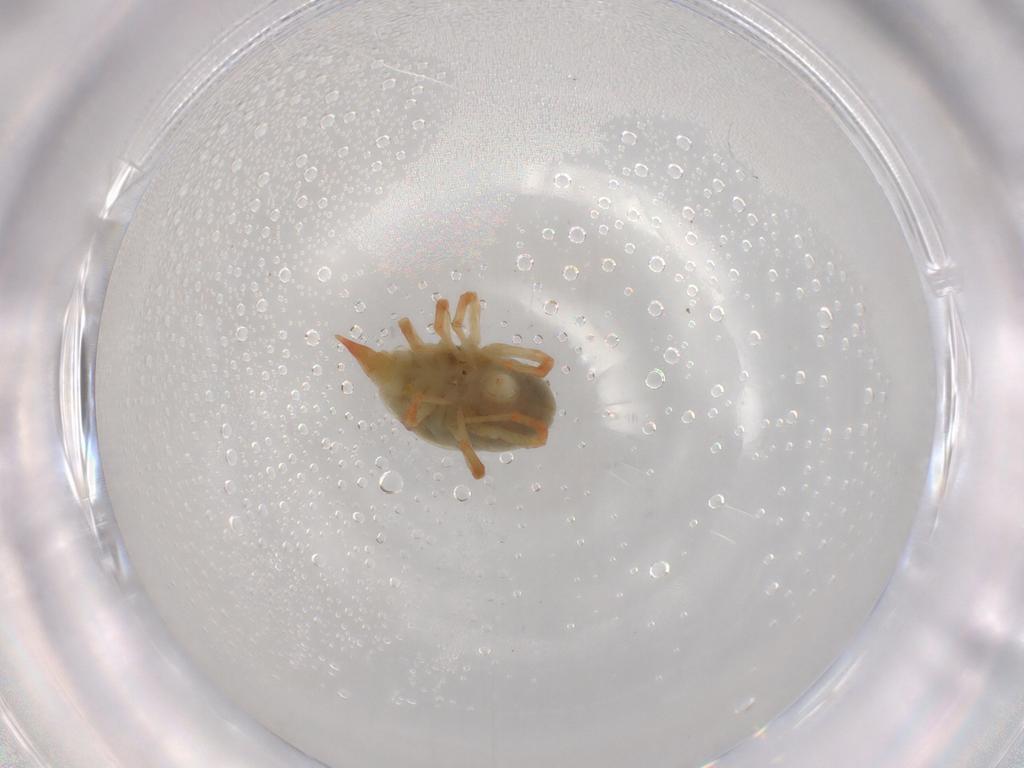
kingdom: Animalia
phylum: Arthropoda
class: Arachnida
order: Trombidiformes
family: Bdellidae
